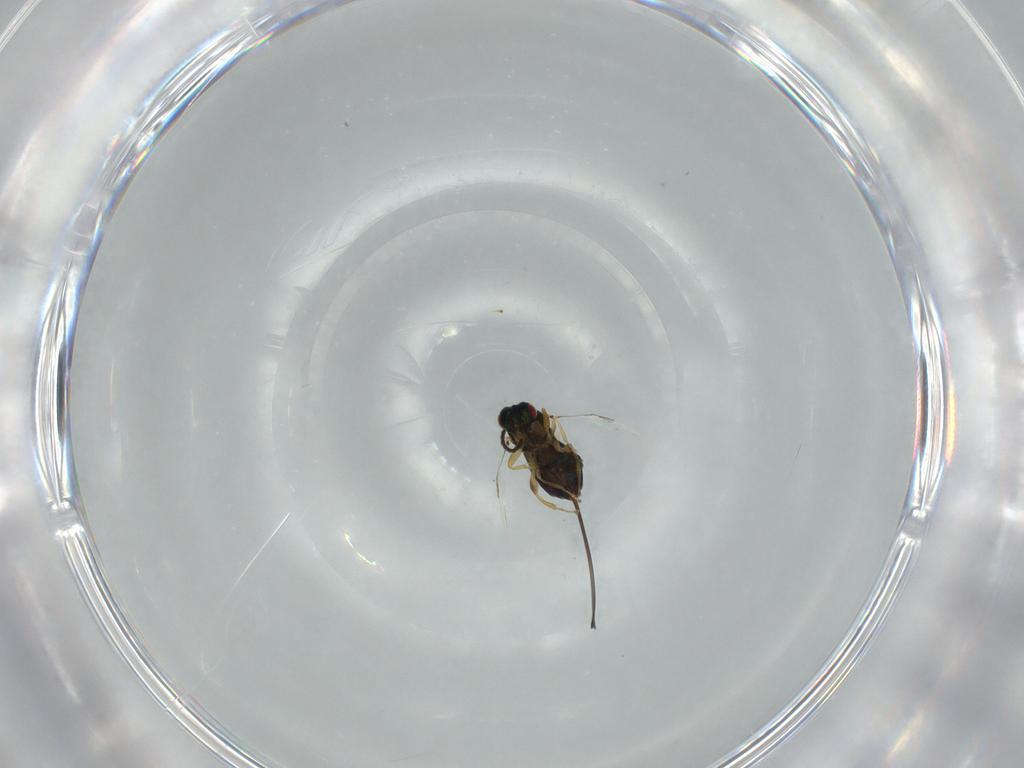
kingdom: Animalia
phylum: Arthropoda
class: Insecta
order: Hymenoptera
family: Agaonidae
